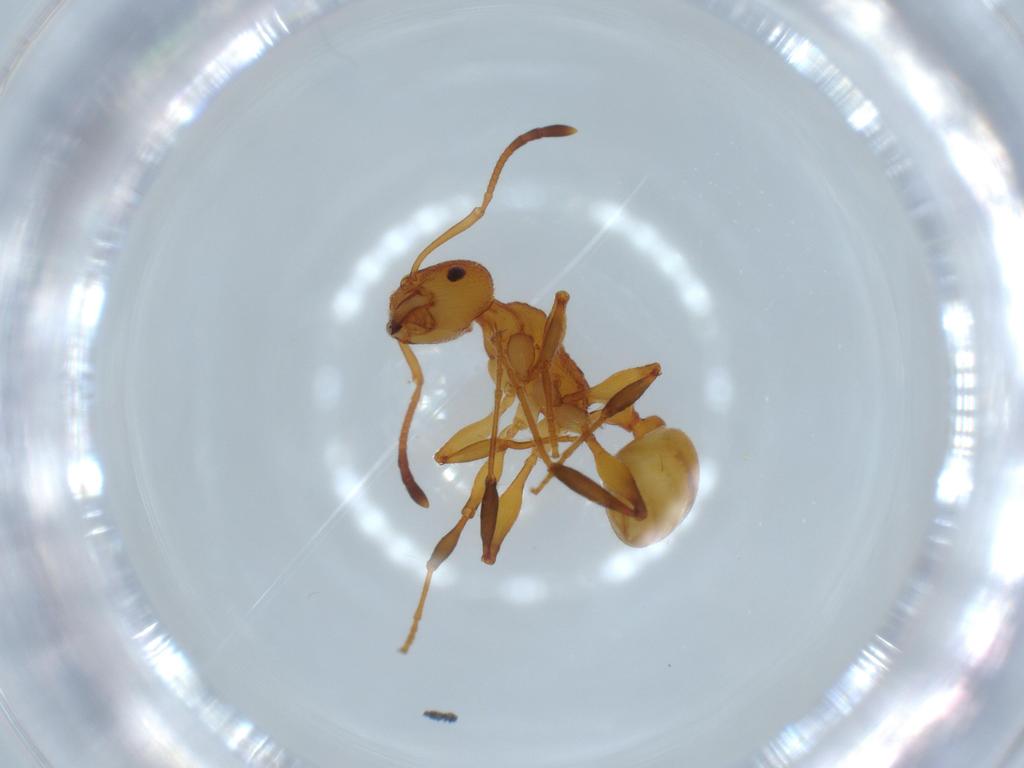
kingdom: Animalia
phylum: Arthropoda
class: Insecta
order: Hymenoptera
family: Formicidae
